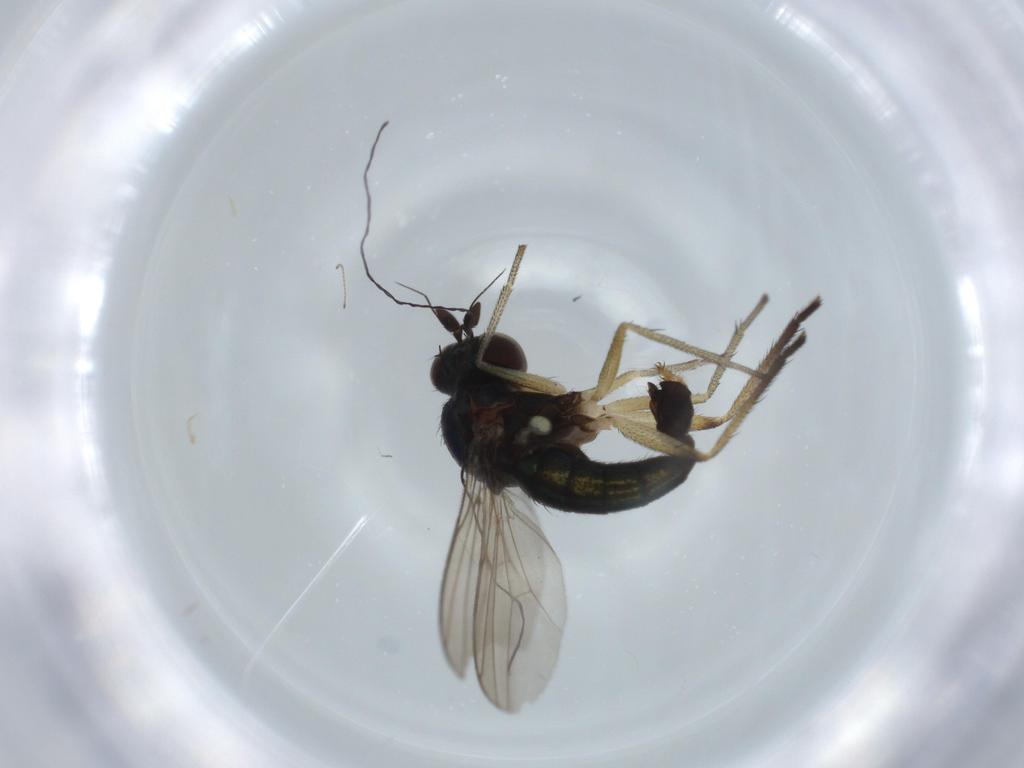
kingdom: Animalia
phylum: Arthropoda
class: Insecta
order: Diptera
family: Dolichopodidae
